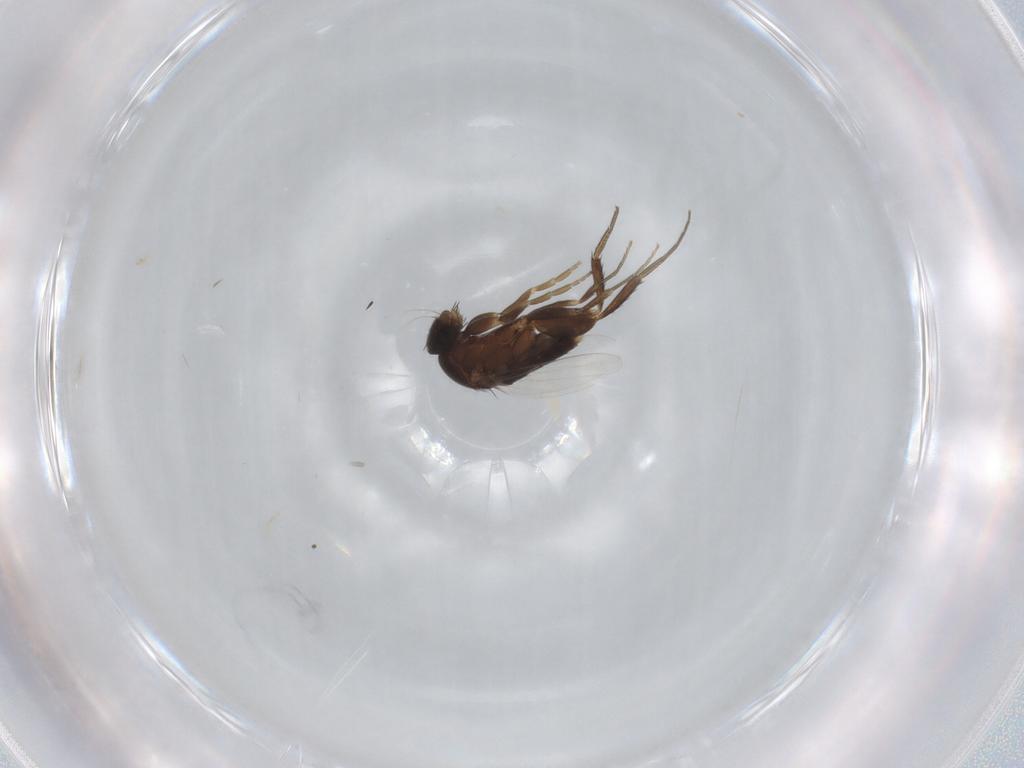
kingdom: Animalia
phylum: Arthropoda
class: Insecta
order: Diptera
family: Phoridae
